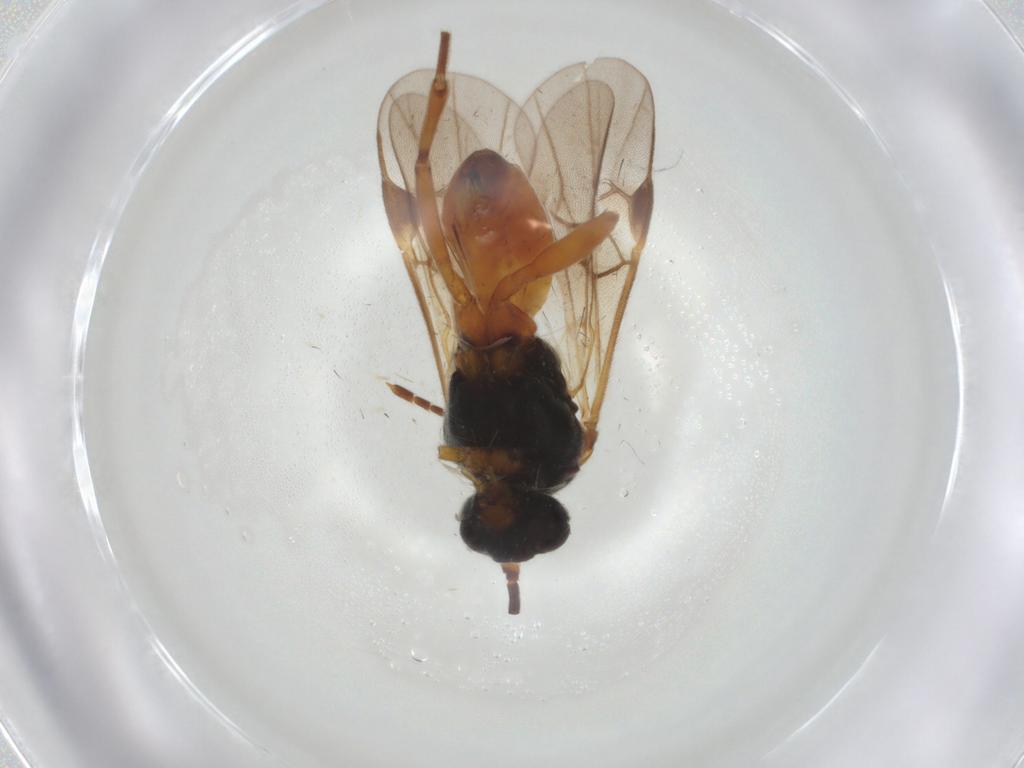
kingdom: Animalia
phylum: Arthropoda
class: Insecta
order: Hymenoptera
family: Braconidae
